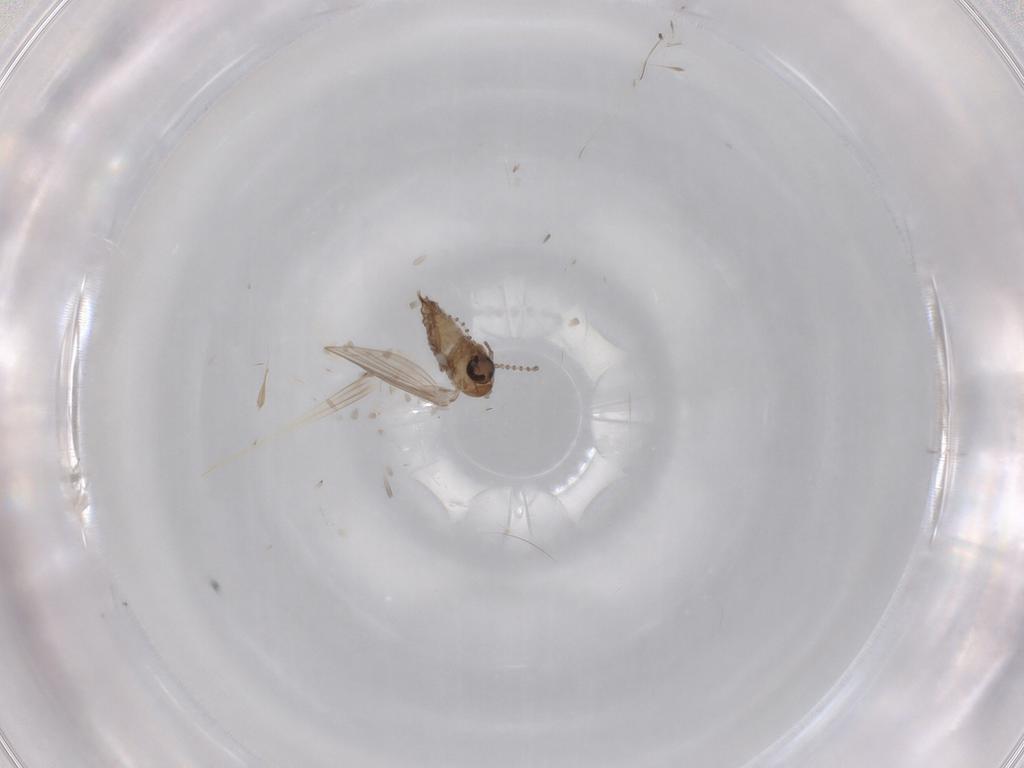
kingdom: Animalia
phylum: Arthropoda
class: Insecta
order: Diptera
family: Psychodidae
